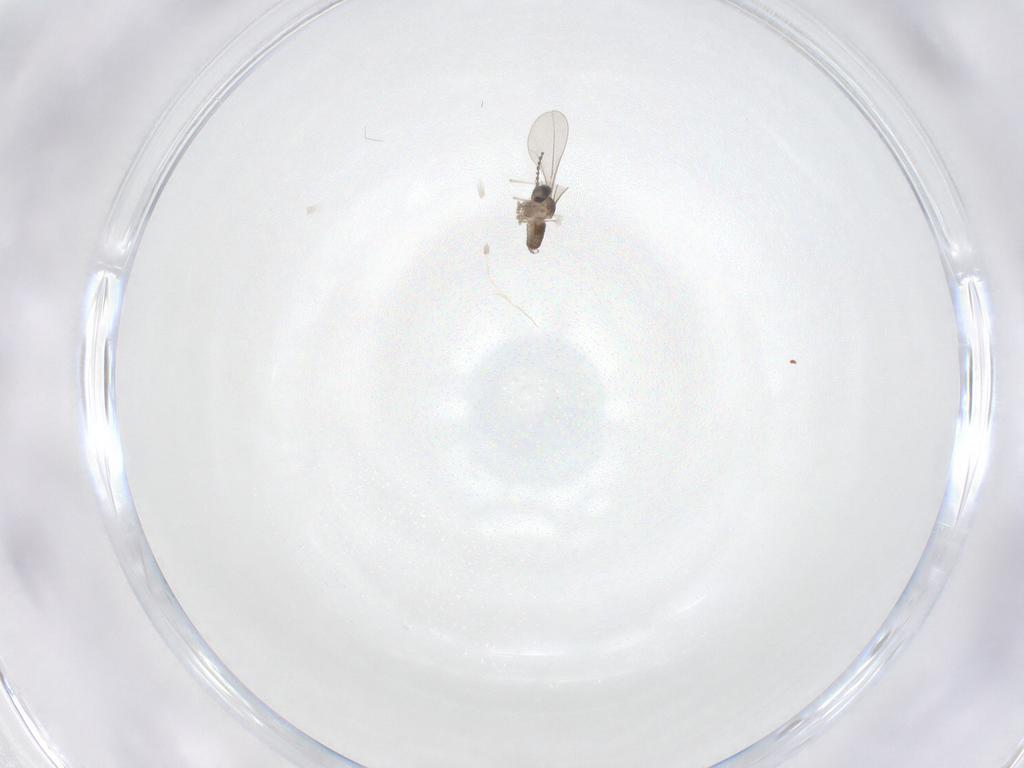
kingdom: Animalia
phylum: Arthropoda
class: Insecta
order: Diptera
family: Cecidomyiidae
